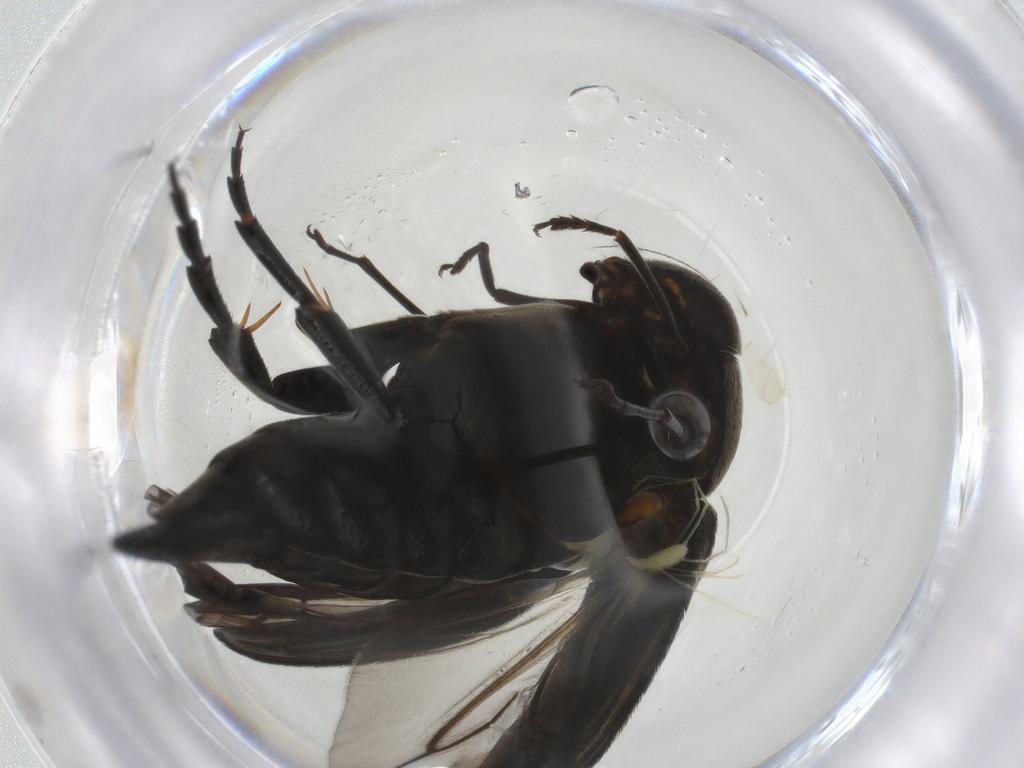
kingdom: Animalia
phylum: Arthropoda
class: Insecta
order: Coleoptera
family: Mordellidae
